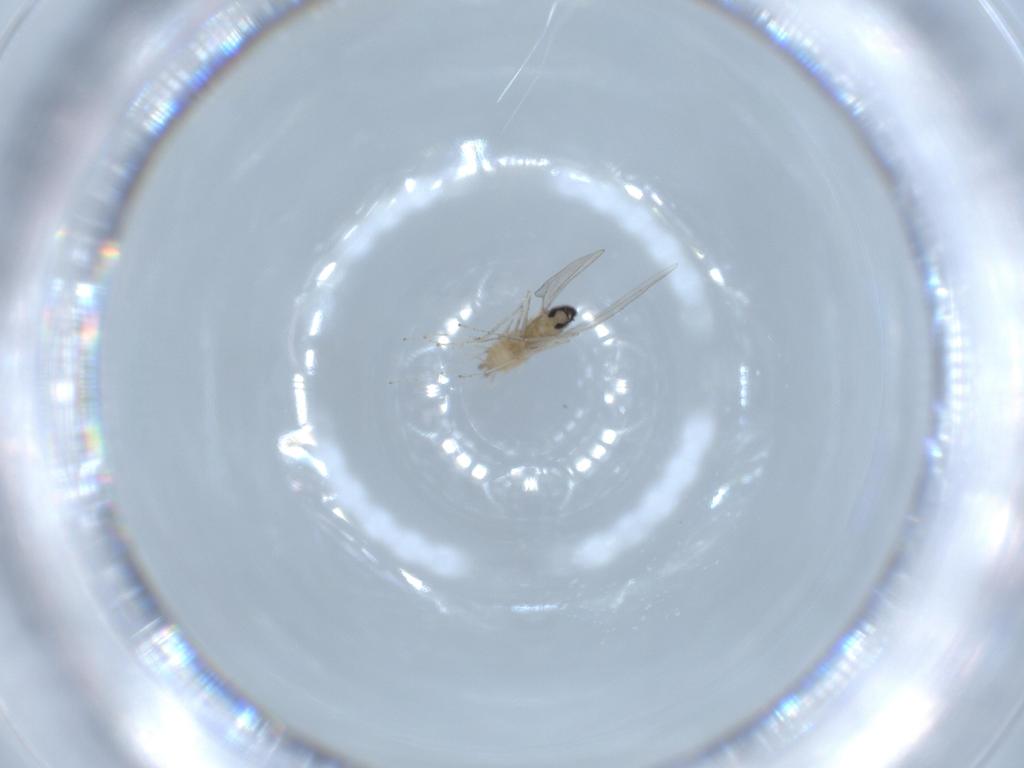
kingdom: Animalia
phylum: Arthropoda
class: Insecta
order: Diptera
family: Cecidomyiidae
